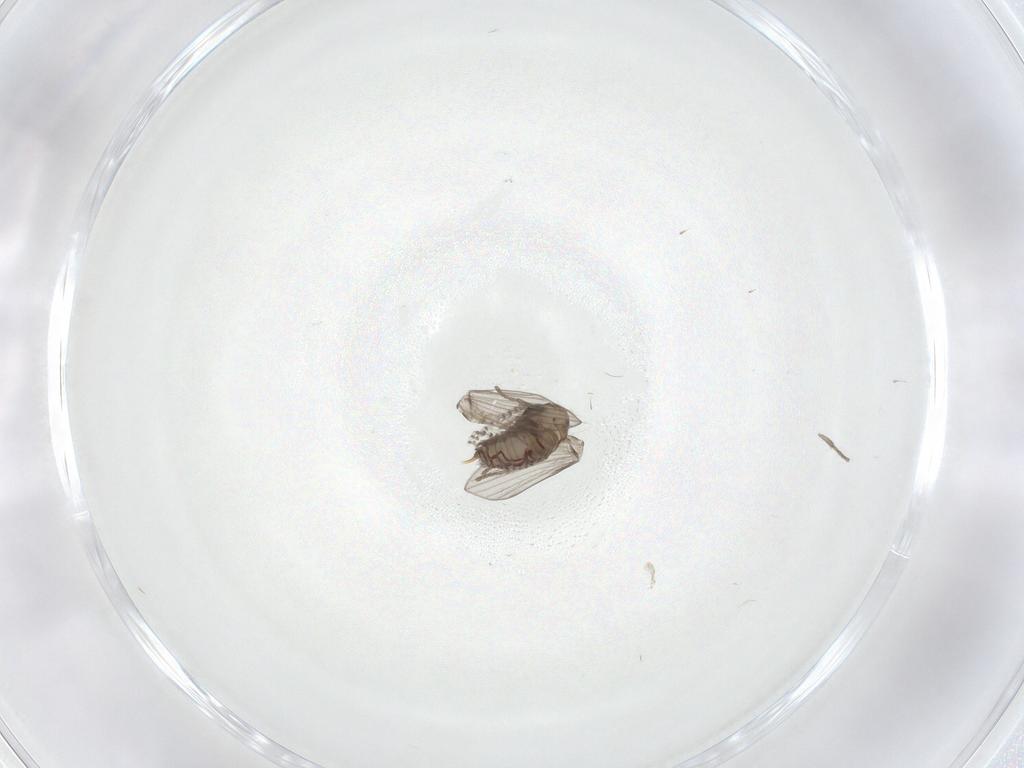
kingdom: Animalia
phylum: Arthropoda
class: Insecta
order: Diptera
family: Psychodidae
